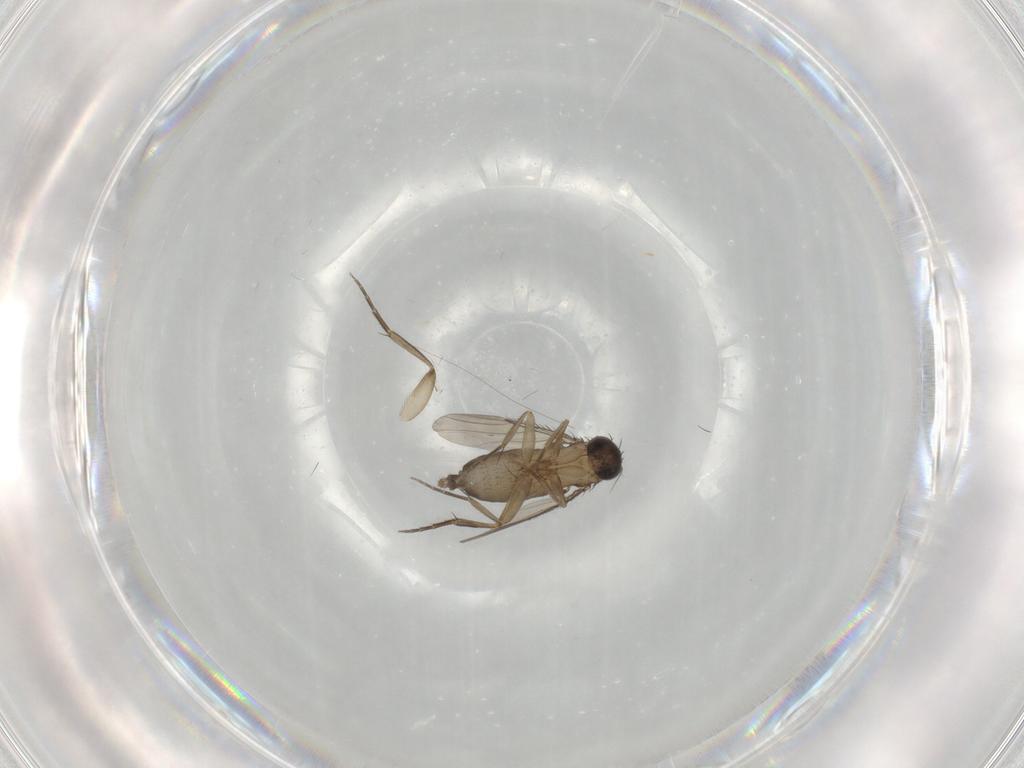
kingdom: Animalia
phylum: Arthropoda
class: Insecta
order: Diptera
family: Phoridae
